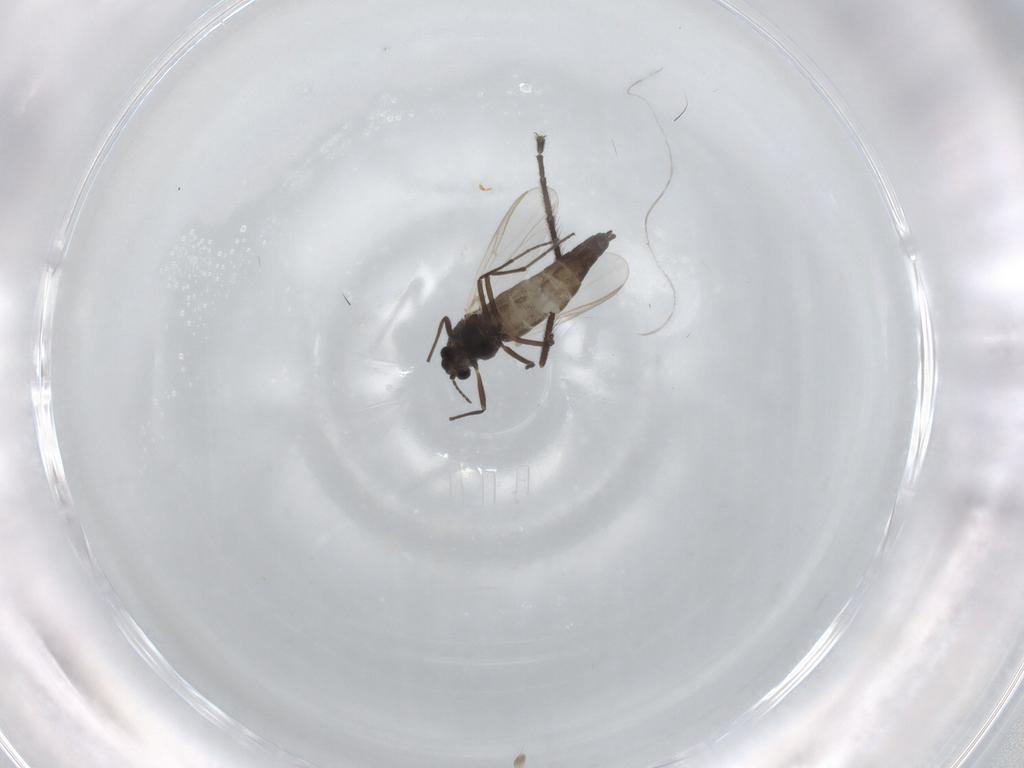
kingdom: Animalia
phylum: Arthropoda
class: Insecta
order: Diptera
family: Chironomidae
